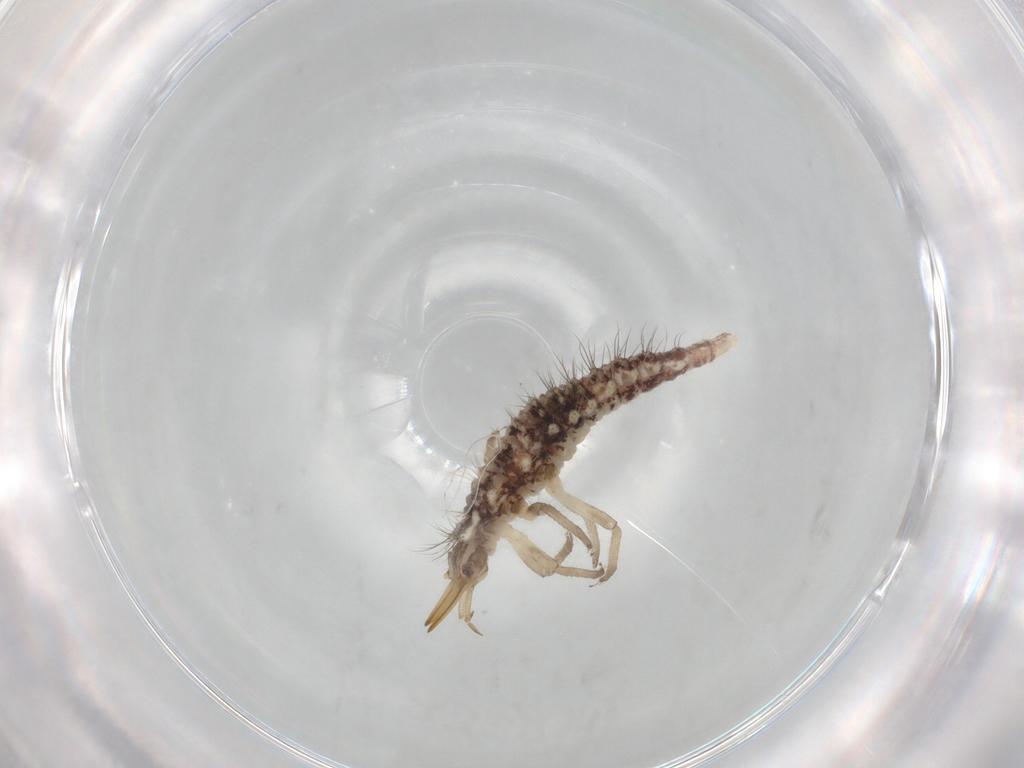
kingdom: Animalia
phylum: Arthropoda
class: Insecta
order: Neuroptera
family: Chrysopidae
